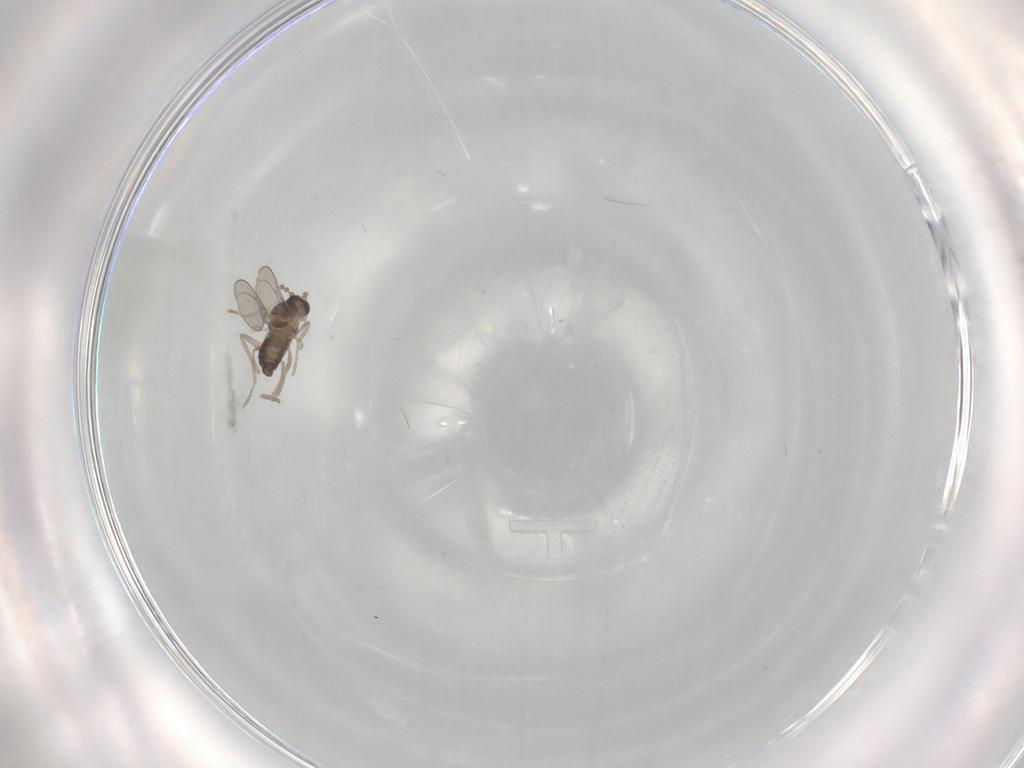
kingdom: Animalia
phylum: Arthropoda
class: Insecta
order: Diptera
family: Cecidomyiidae
